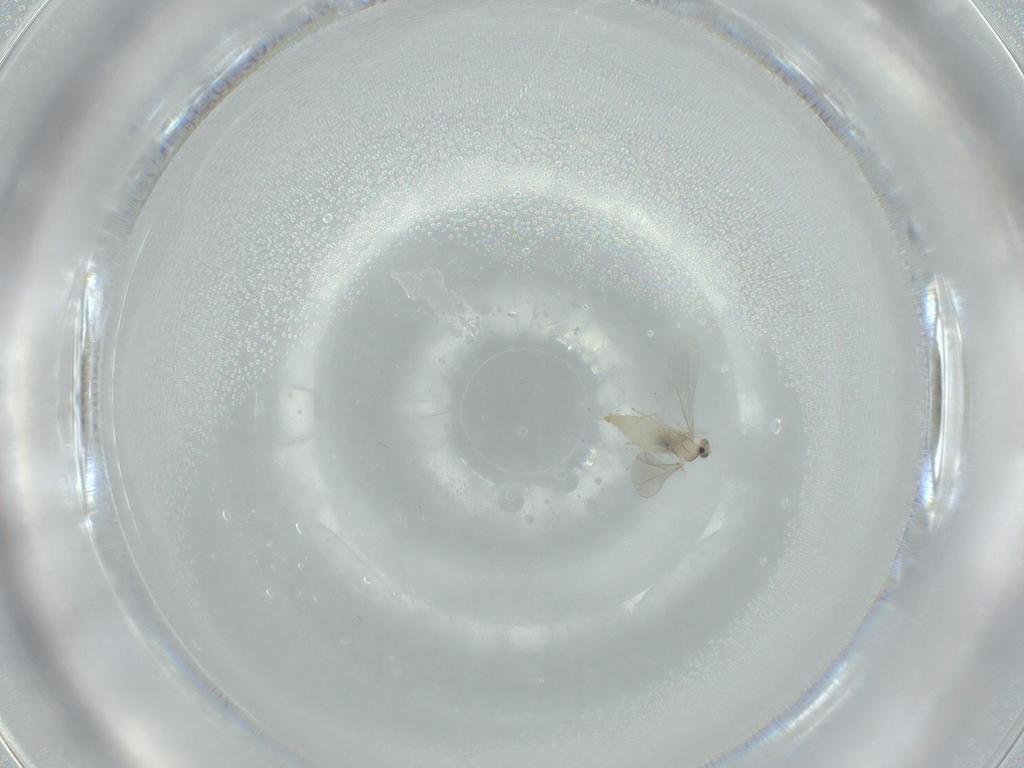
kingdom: Animalia
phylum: Arthropoda
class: Insecta
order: Diptera
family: Cecidomyiidae
